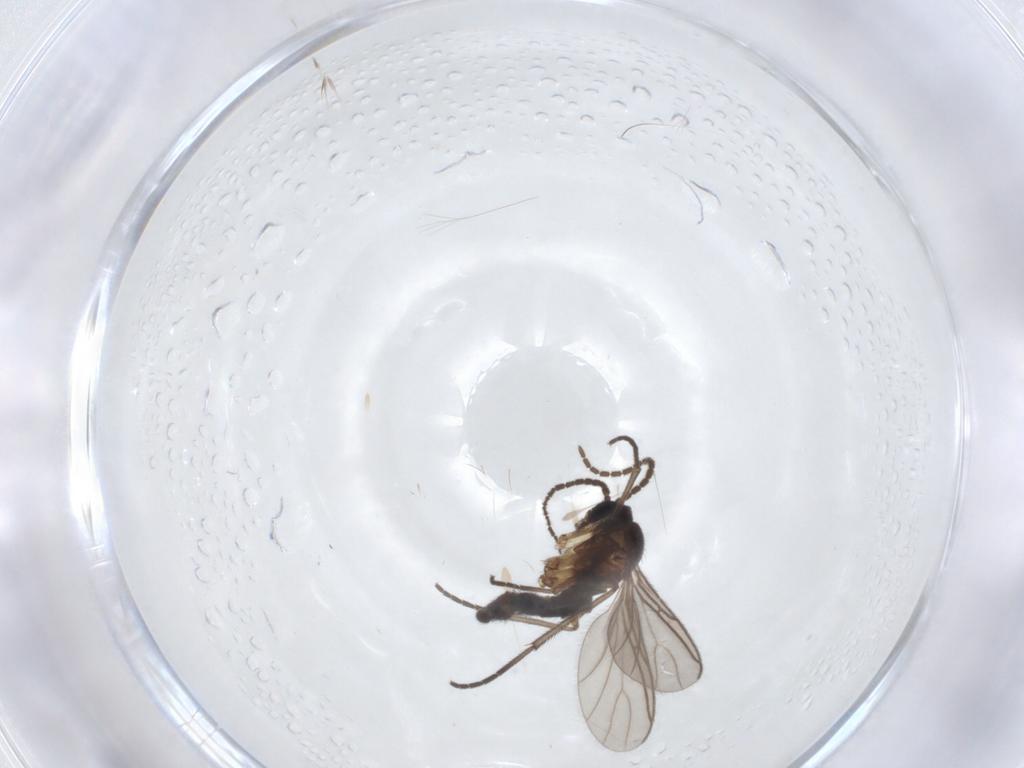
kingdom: Animalia
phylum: Arthropoda
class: Insecta
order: Diptera
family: Sciaridae
